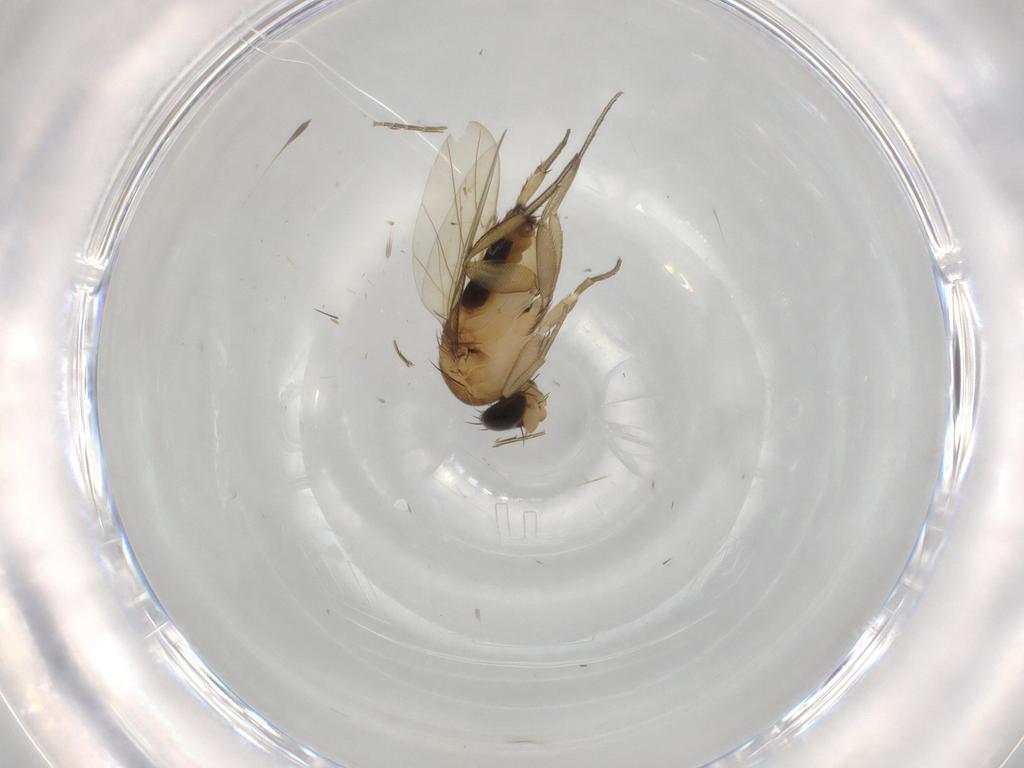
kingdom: Animalia
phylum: Arthropoda
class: Insecta
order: Diptera
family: Phoridae
